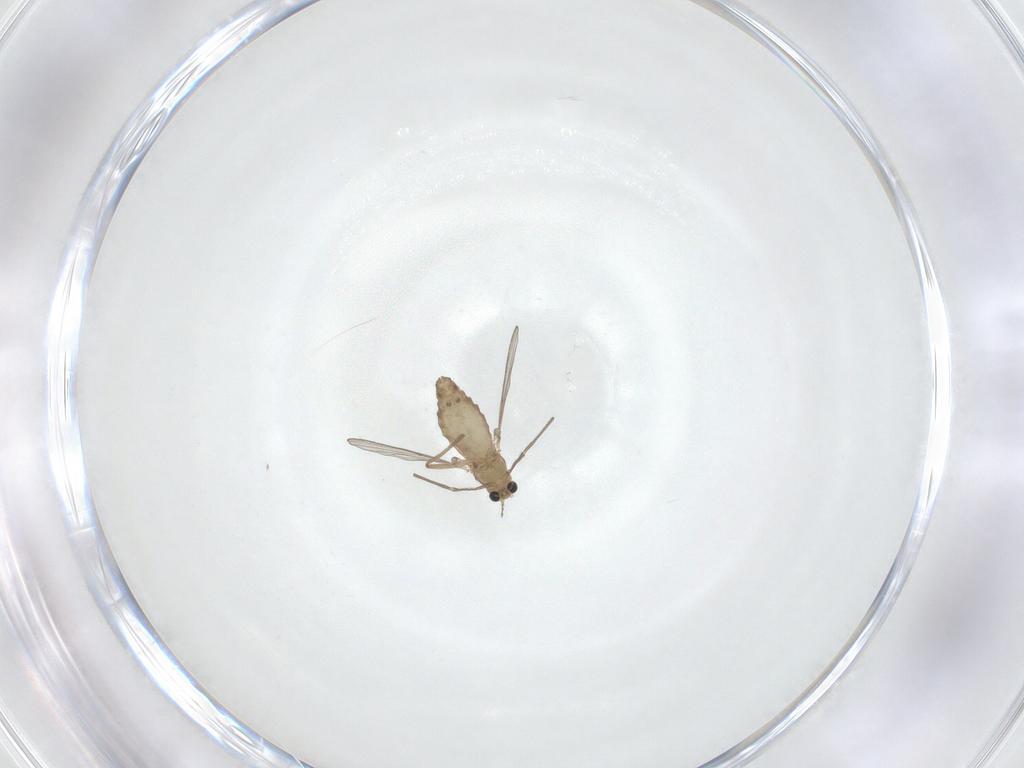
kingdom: Animalia
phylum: Arthropoda
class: Insecta
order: Diptera
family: Chironomidae
